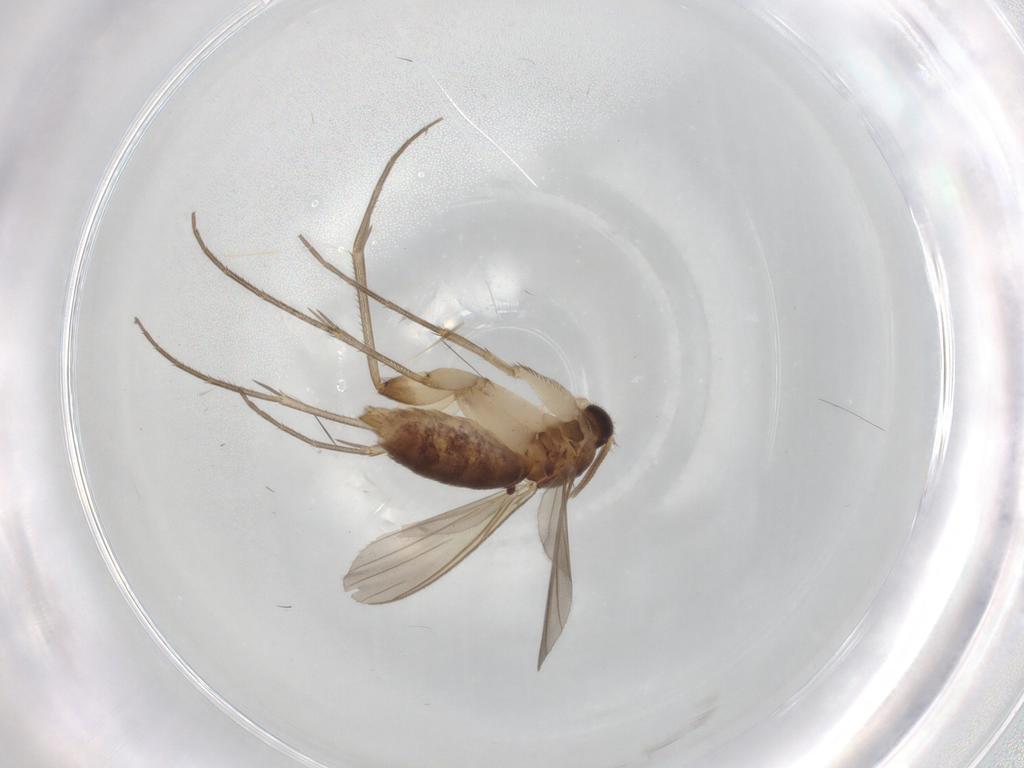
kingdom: Animalia
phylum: Arthropoda
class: Insecta
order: Diptera
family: Mycetophilidae
